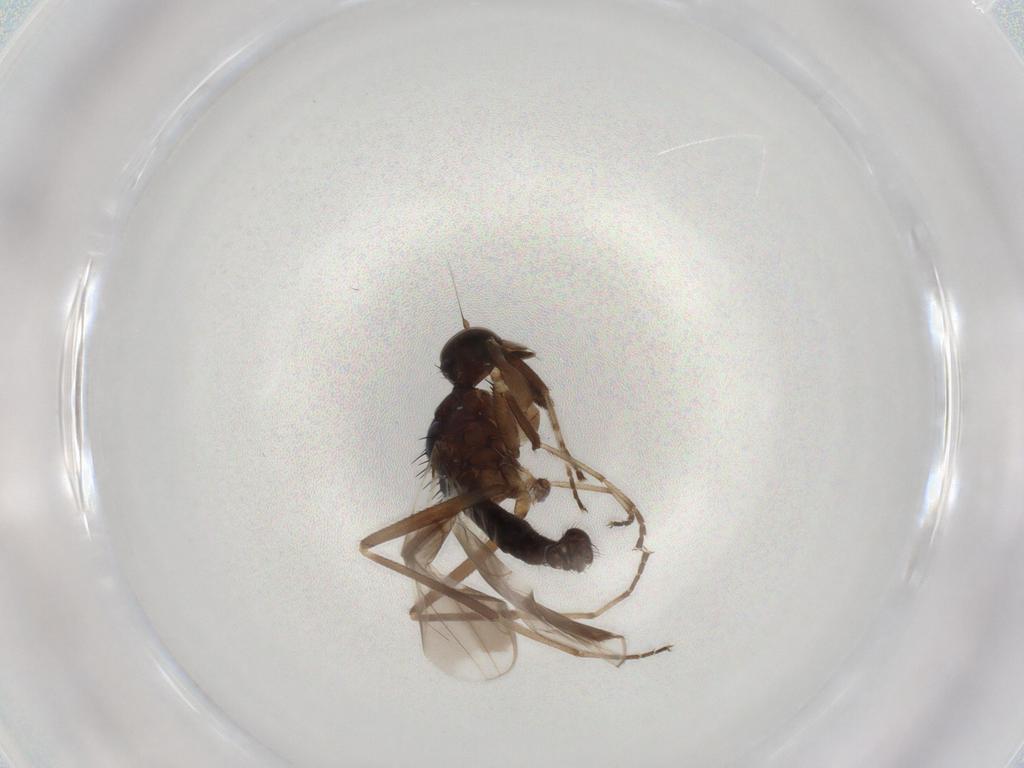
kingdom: Animalia
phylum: Arthropoda
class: Insecta
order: Diptera
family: Hybotidae
